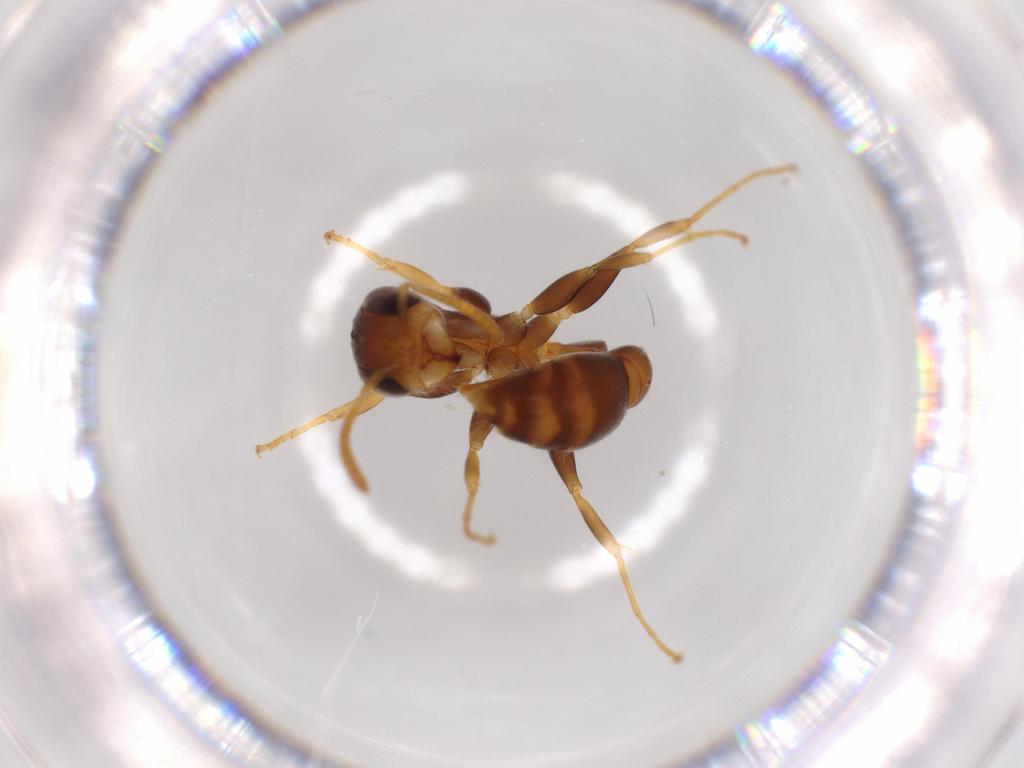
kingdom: Animalia
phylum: Arthropoda
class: Insecta
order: Hymenoptera
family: Formicidae
